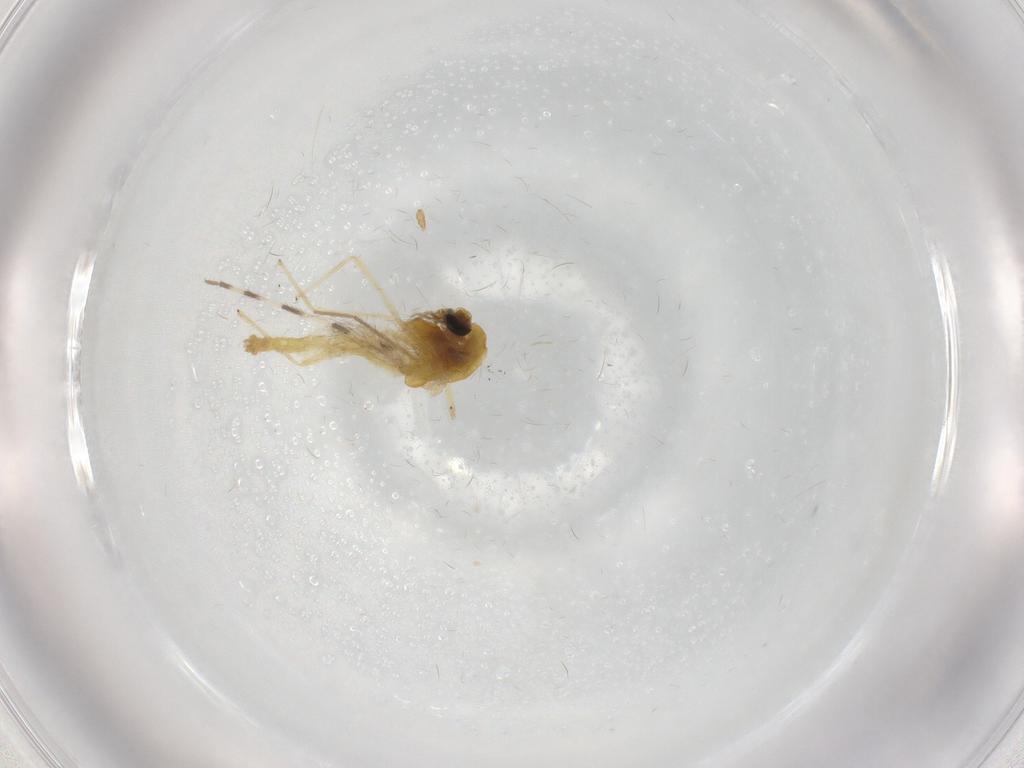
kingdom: Animalia
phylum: Arthropoda
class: Insecta
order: Diptera
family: Chironomidae
